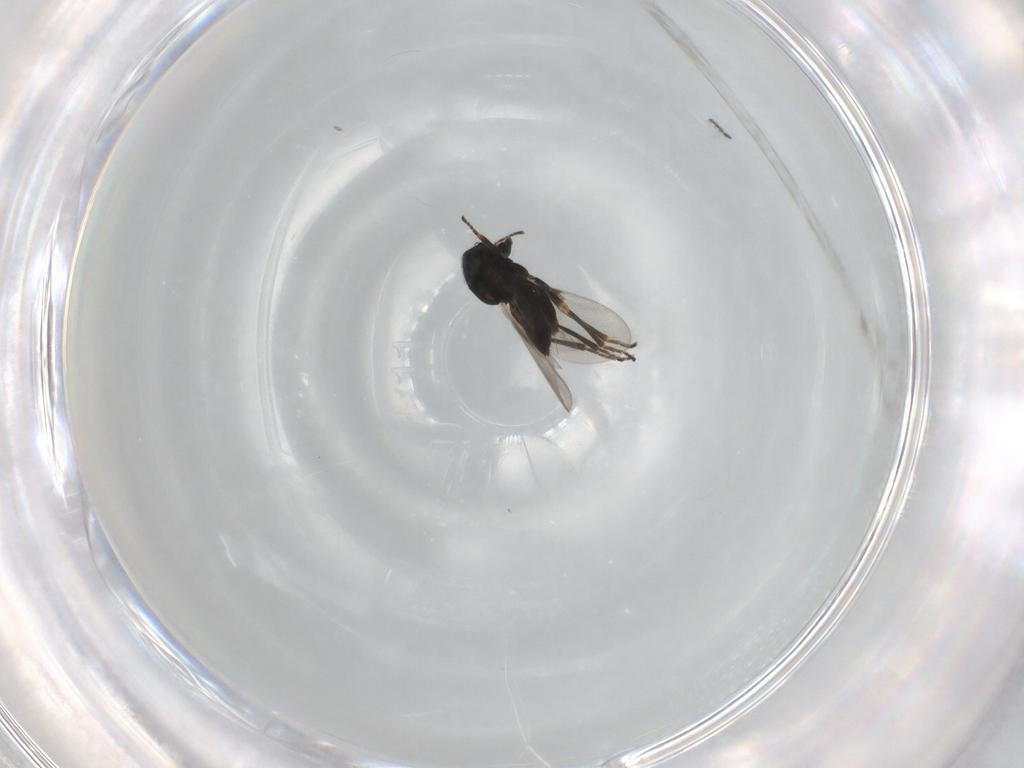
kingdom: Animalia
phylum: Arthropoda
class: Insecta
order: Hymenoptera
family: Encyrtidae
